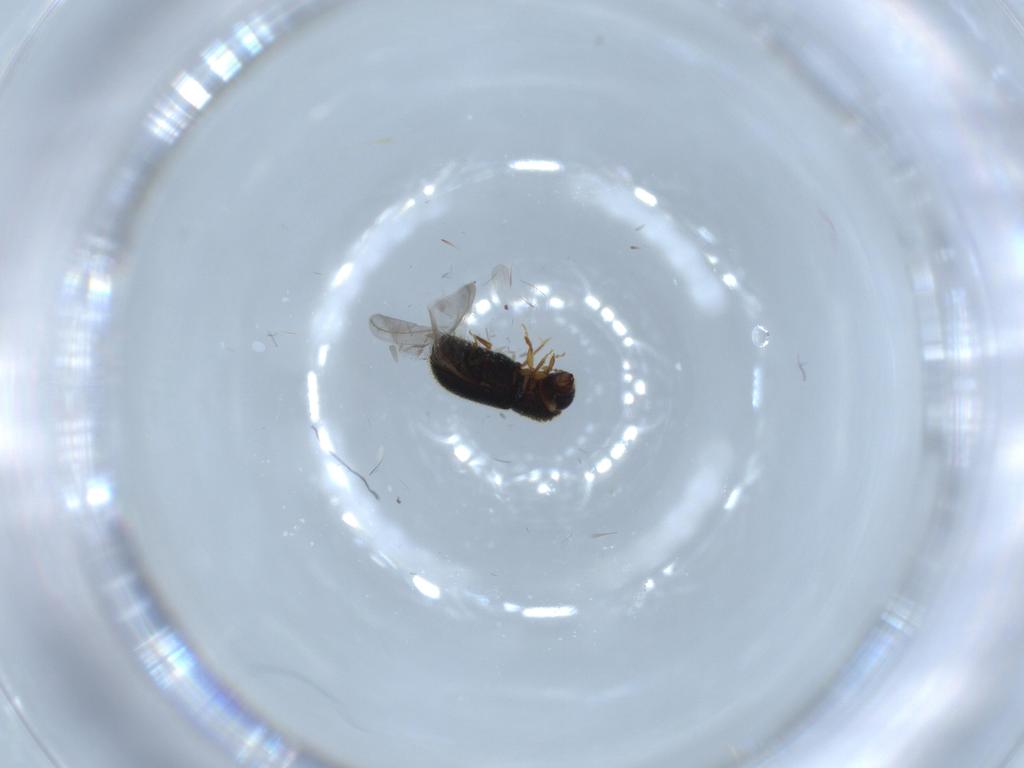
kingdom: Animalia
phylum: Arthropoda
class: Insecta
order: Coleoptera
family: Curculionidae
